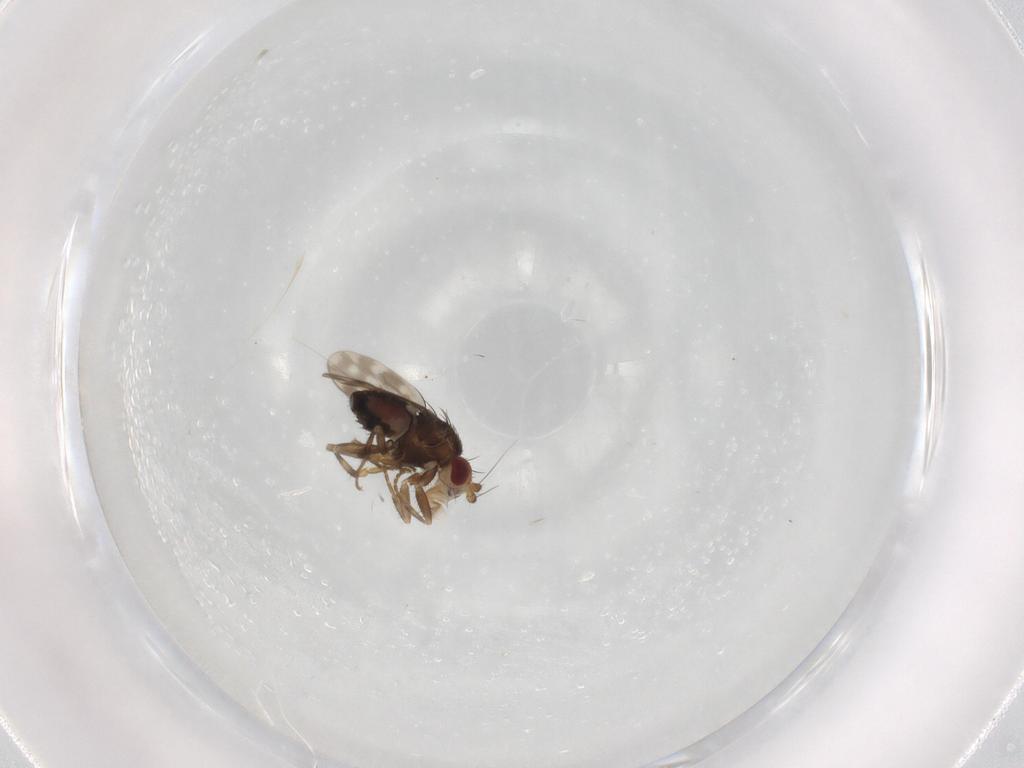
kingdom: Animalia
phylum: Arthropoda
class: Insecta
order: Diptera
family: Sphaeroceridae
